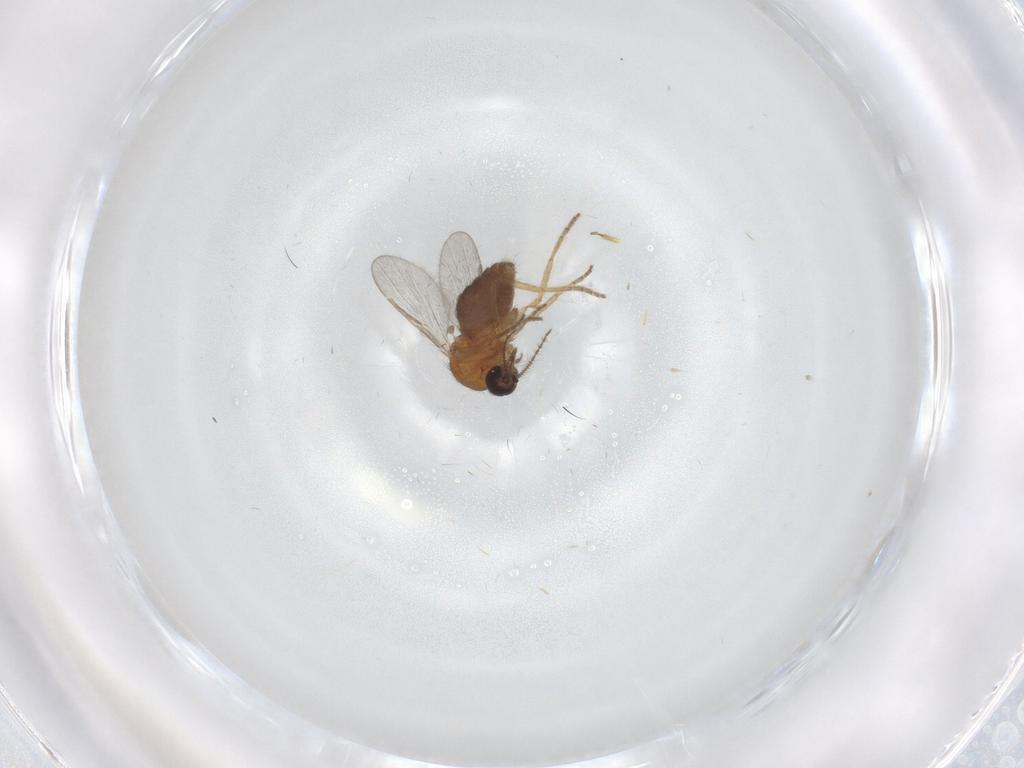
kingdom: Animalia
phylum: Arthropoda
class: Insecta
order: Diptera
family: Ceratopogonidae
